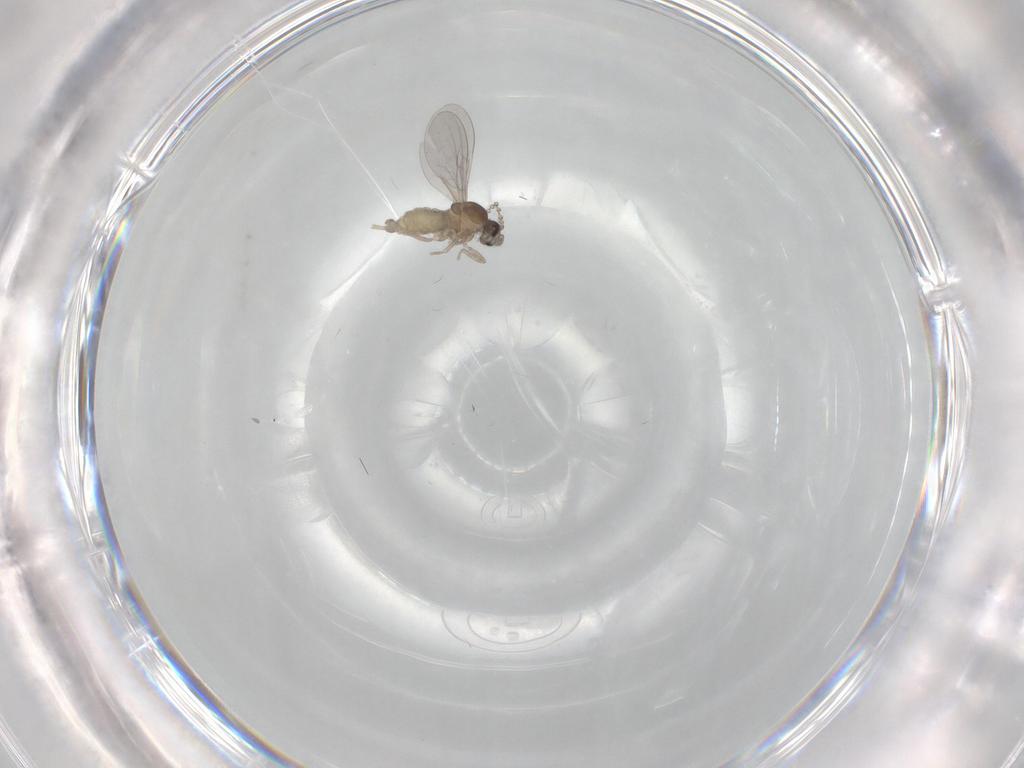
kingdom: Animalia
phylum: Arthropoda
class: Insecta
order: Diptera
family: Cecidomyiidae
